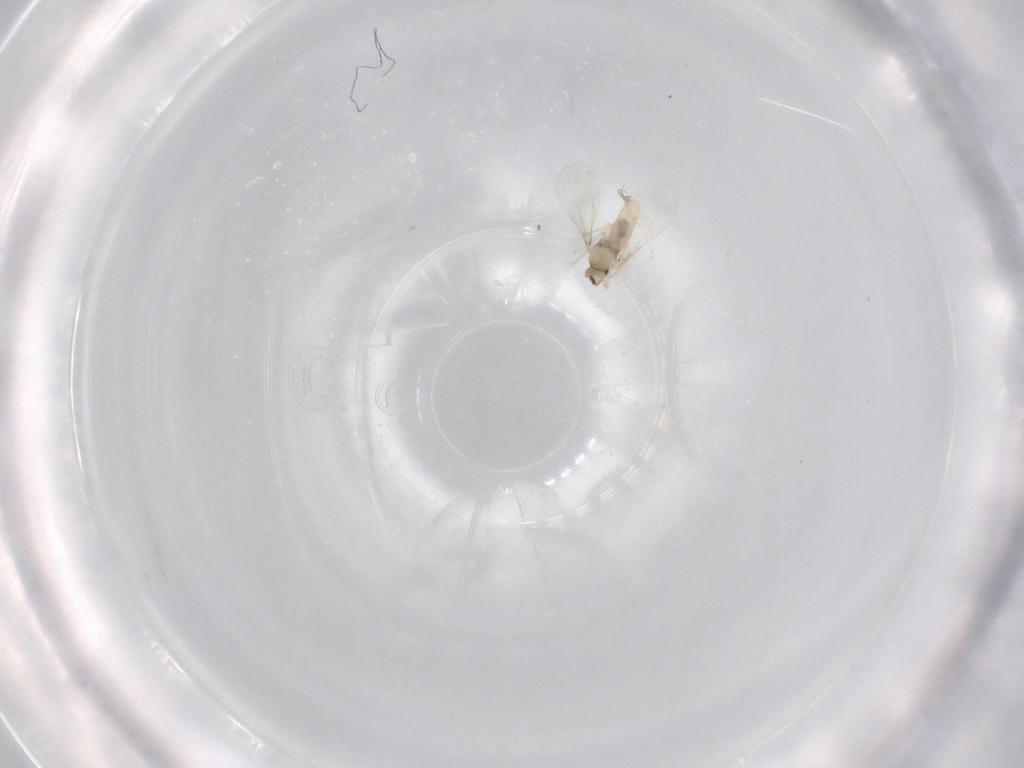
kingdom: Animalia
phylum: Arthropoda
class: Insecta
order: Diptera
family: Cecidomyiidae
